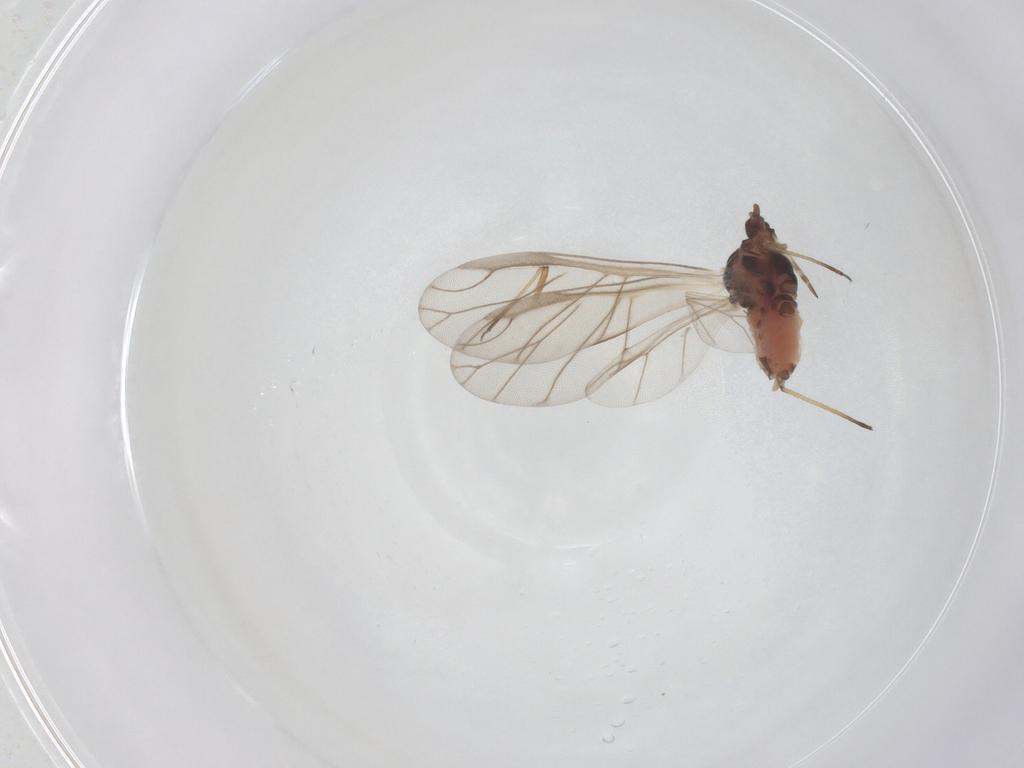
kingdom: Animalia
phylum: Arthropoda
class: Insecta
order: Hemiptera
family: Aphididae
